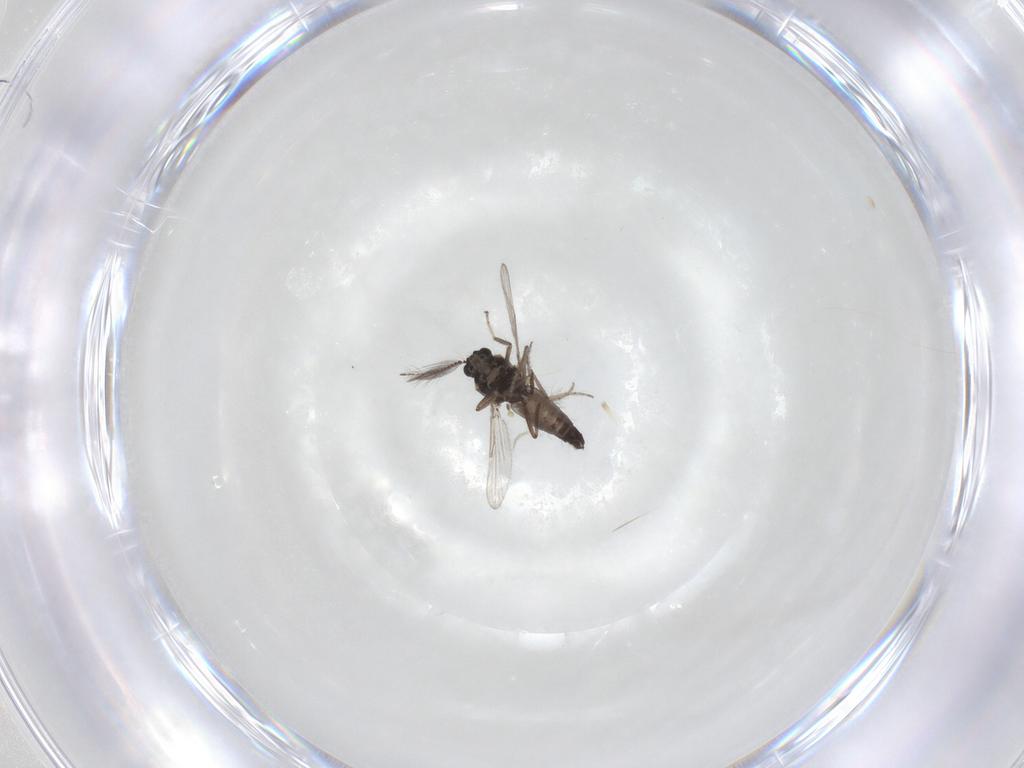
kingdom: Animalia
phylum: Arthropoda
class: Insecta
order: Diptera
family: Ceratopogonidae
